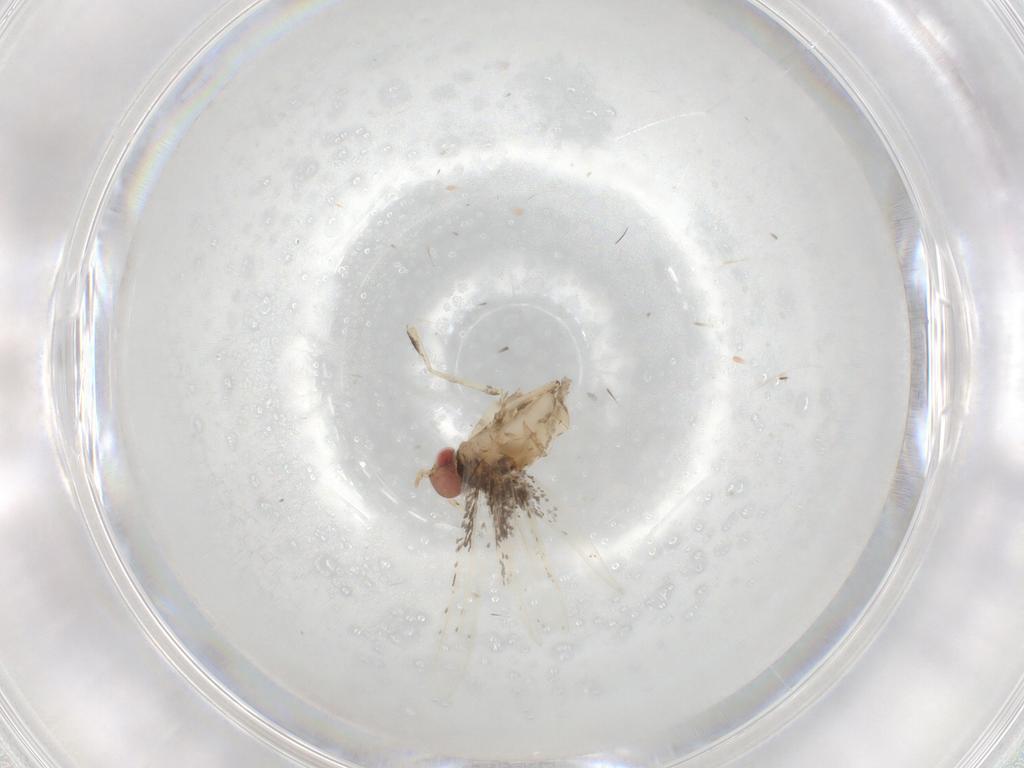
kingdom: Animalia
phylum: Arthropoda
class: Insecta
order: Lepidoptera
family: Gracillariidae
